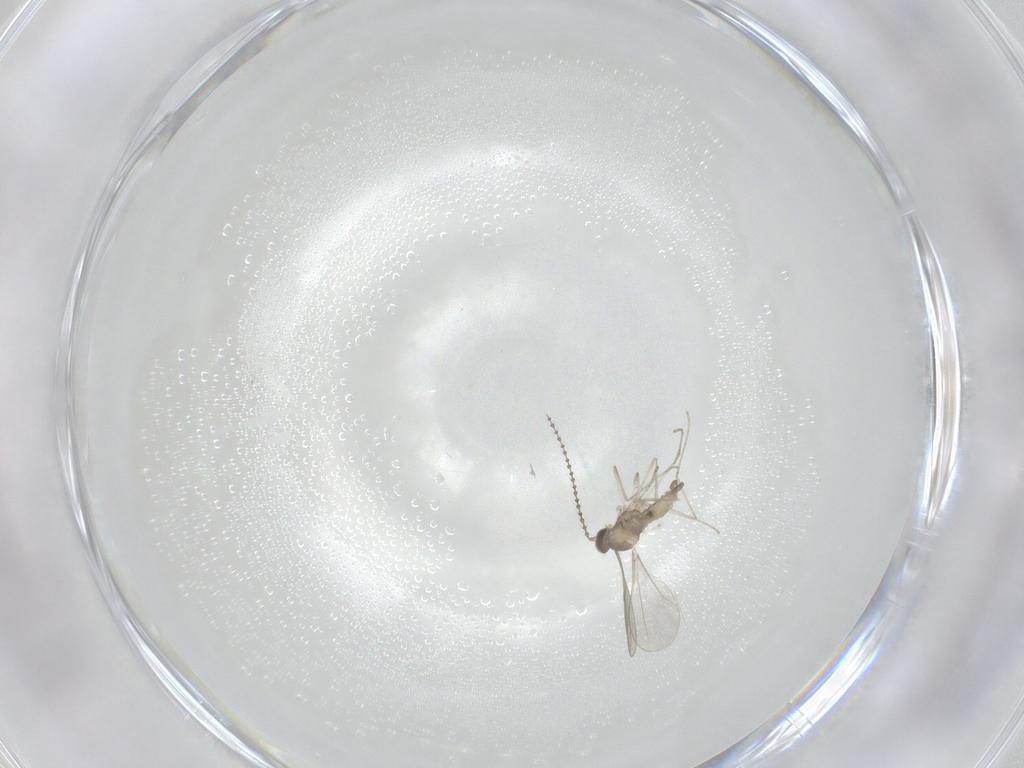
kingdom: Animalia
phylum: Arthropoda
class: Insecta
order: Diptera
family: Cecidomyiidae
